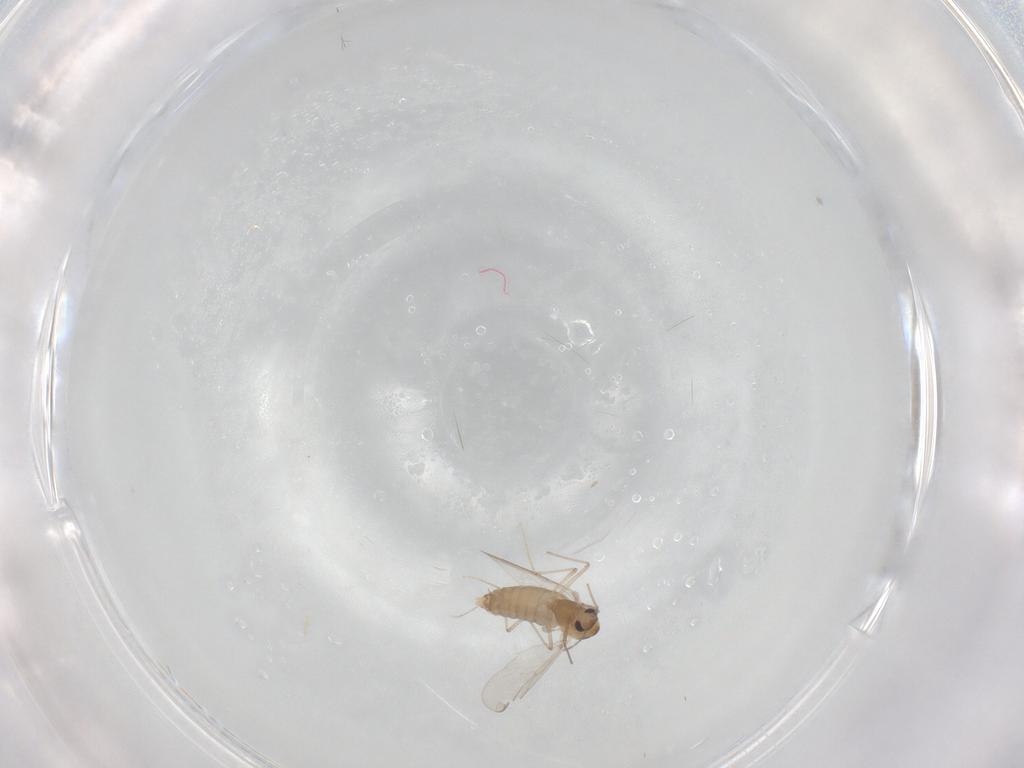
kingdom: Animalia
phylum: Arthropoda
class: Insecta
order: Diptera
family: Chironomidae
